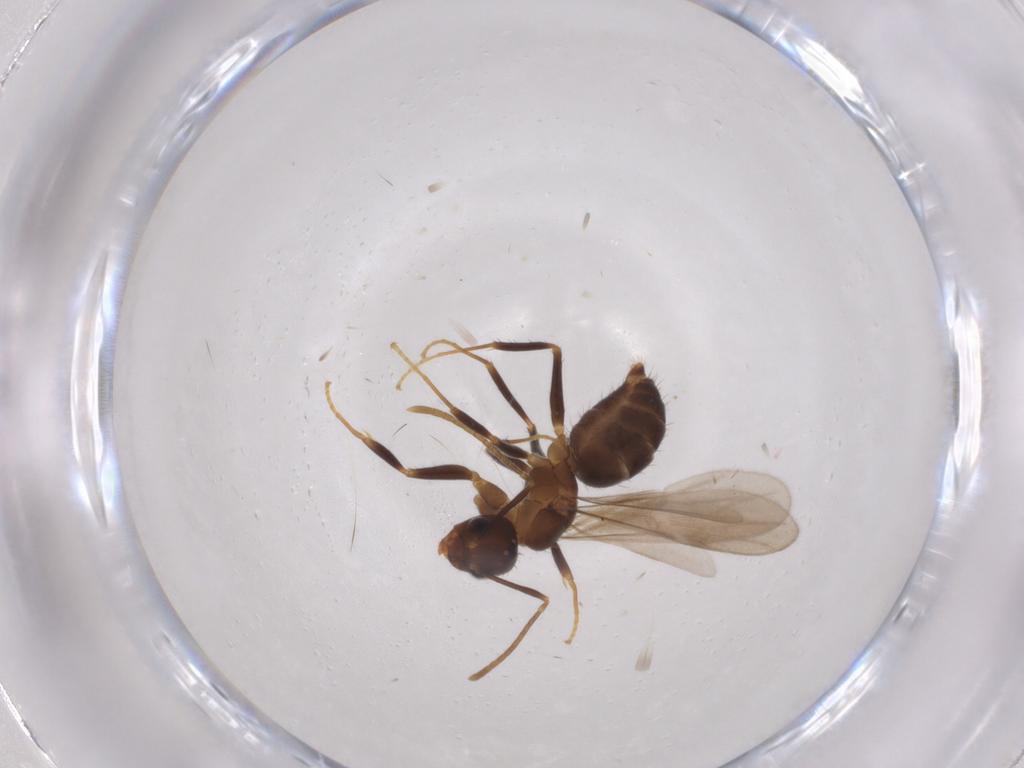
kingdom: Animalia
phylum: Arthropoda
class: Insecta
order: Hymenoptera
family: Formicidae
